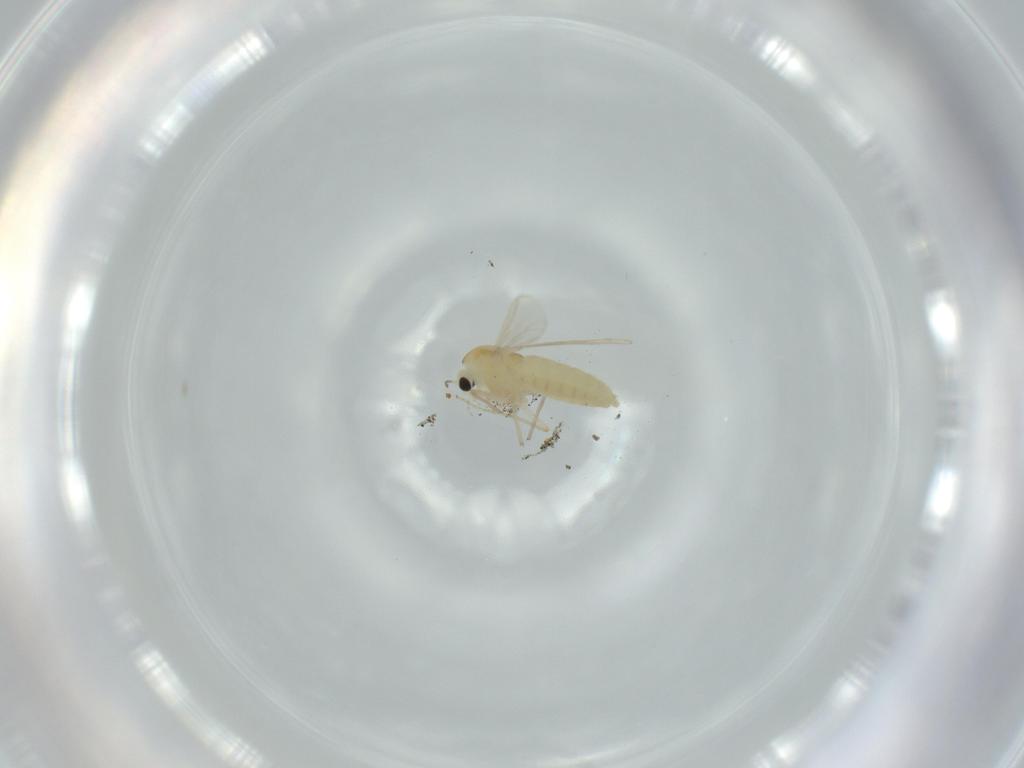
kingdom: Animalia
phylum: Arthropoda
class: Insecta
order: Diptera
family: Chironomidae
